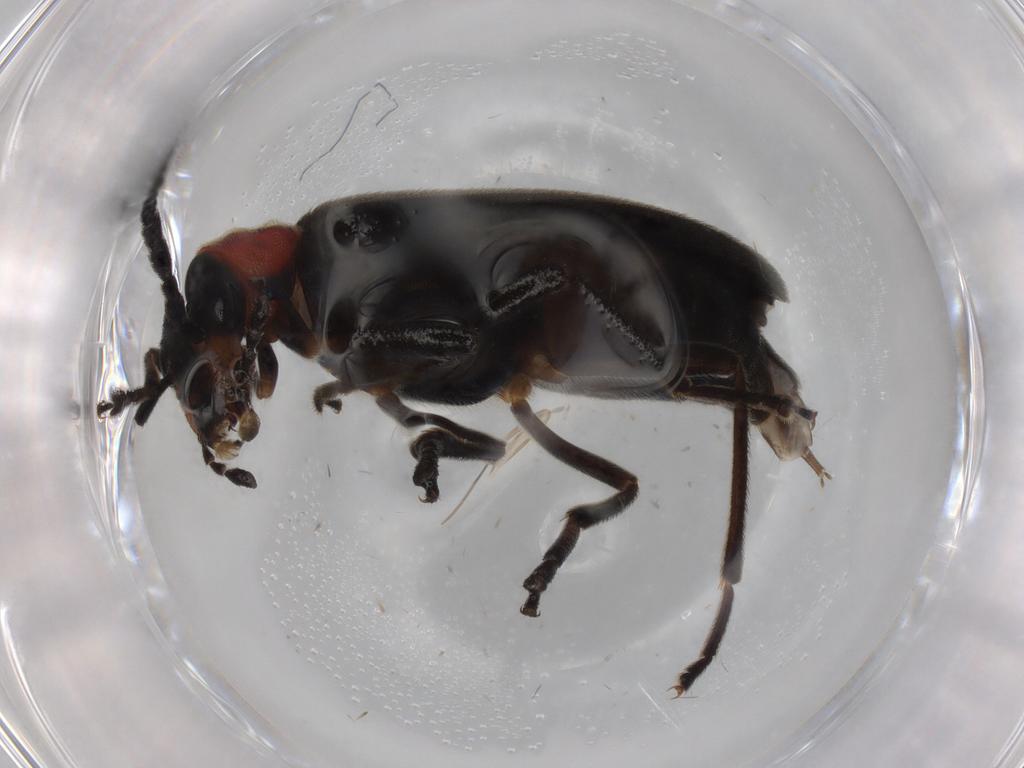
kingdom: Animalia
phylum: Arthropoda
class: Insecta
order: Coleoptera
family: Oedemeridae
